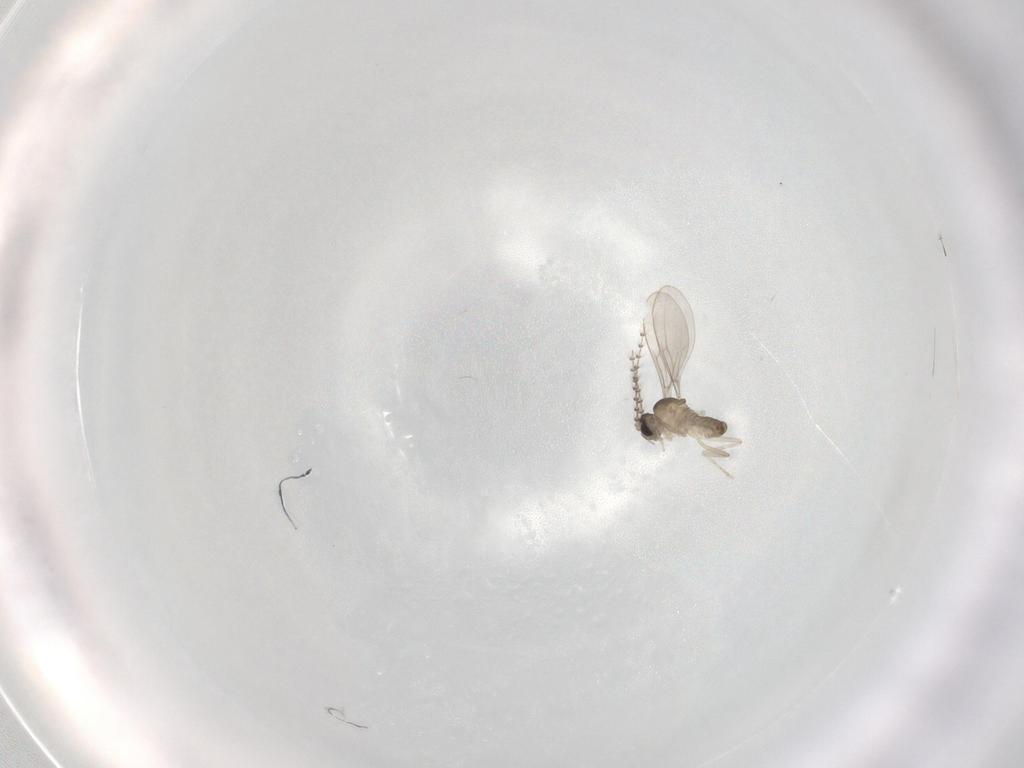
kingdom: Animalia
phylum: Arthropoda
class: Insecta
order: Diptera
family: Cecidomyiidae
